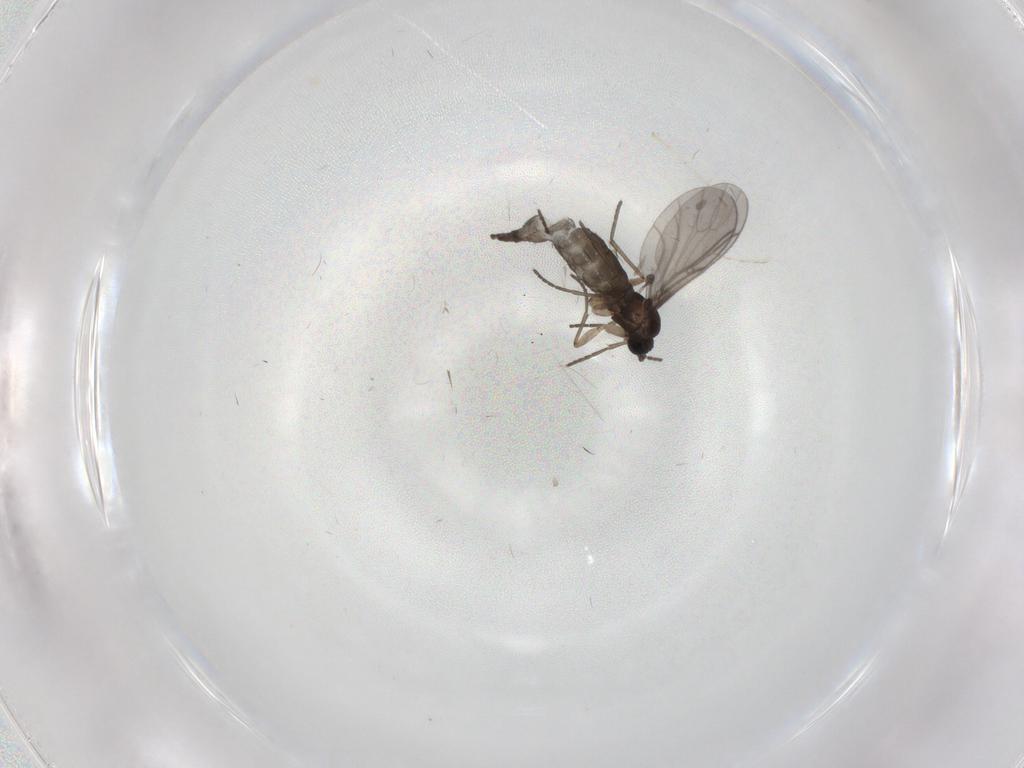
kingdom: Animalia
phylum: Arthropoda
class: Insecta
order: Diptera
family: Sciaridae
